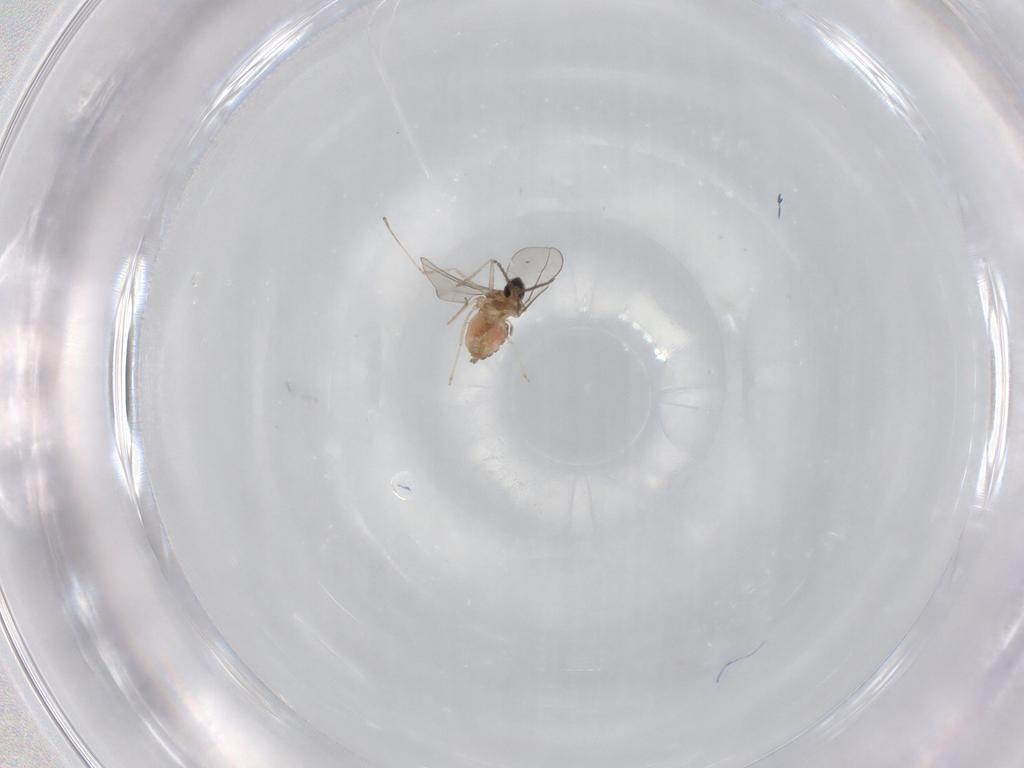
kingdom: Animalia
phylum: Arthropoda
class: Insecta
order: Diptera
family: Cecidomyiidae
